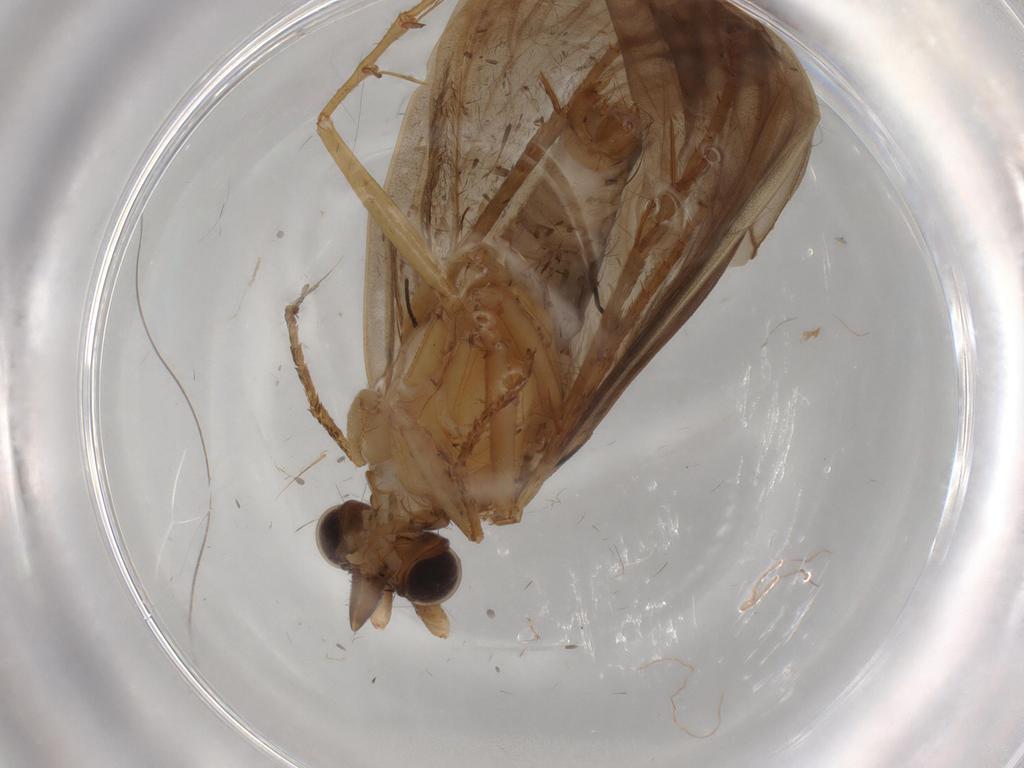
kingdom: Animalia
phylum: Arthropoda
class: Insecta
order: Trichoptera
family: Lepidostomatidae
